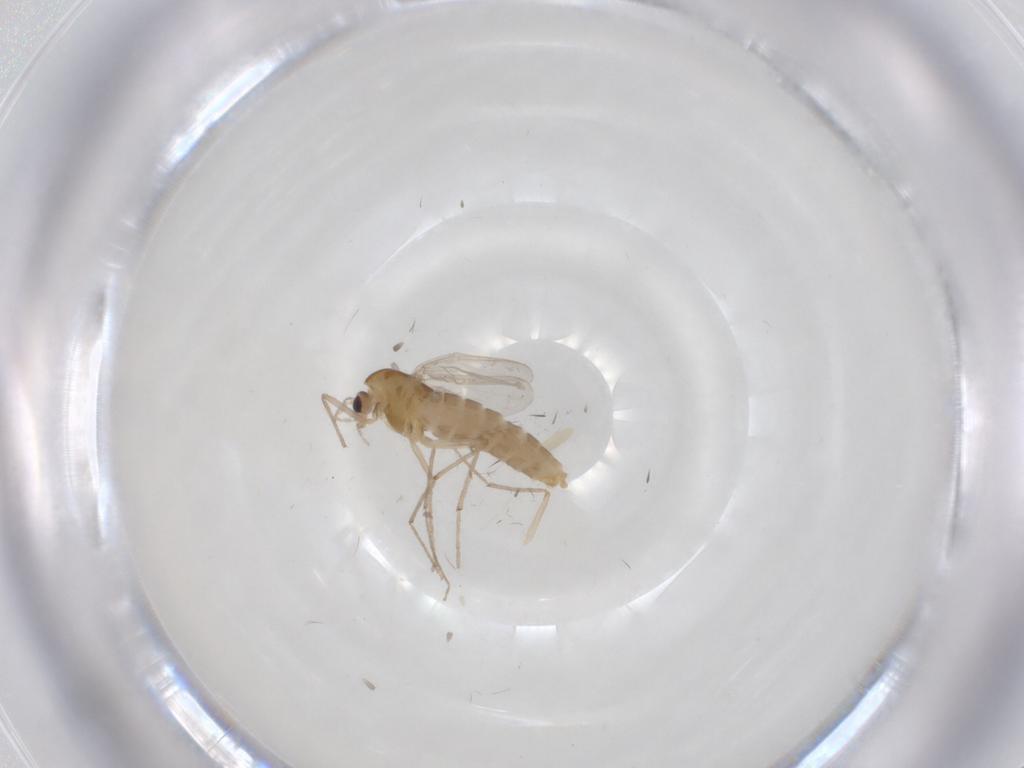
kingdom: Animalia
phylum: Arthropoda
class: Insecta
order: Diptera
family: Chironomidae
